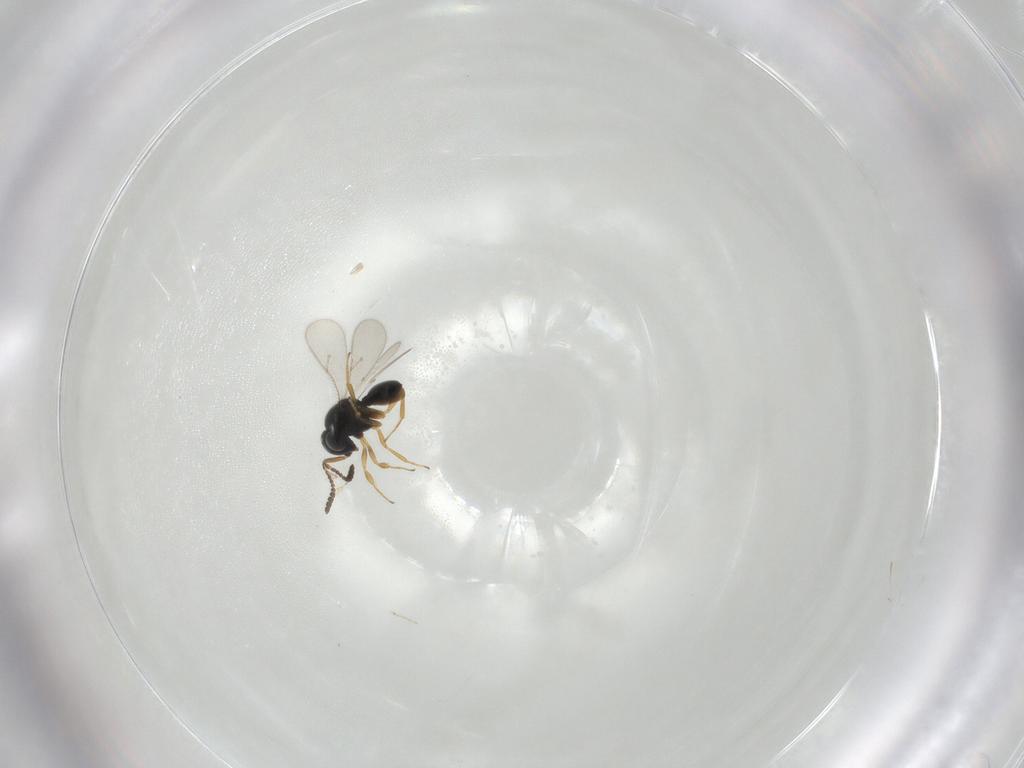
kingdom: Animalia
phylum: Arthropoda
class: Insecta
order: Hymenoptera
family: Scelionidae
